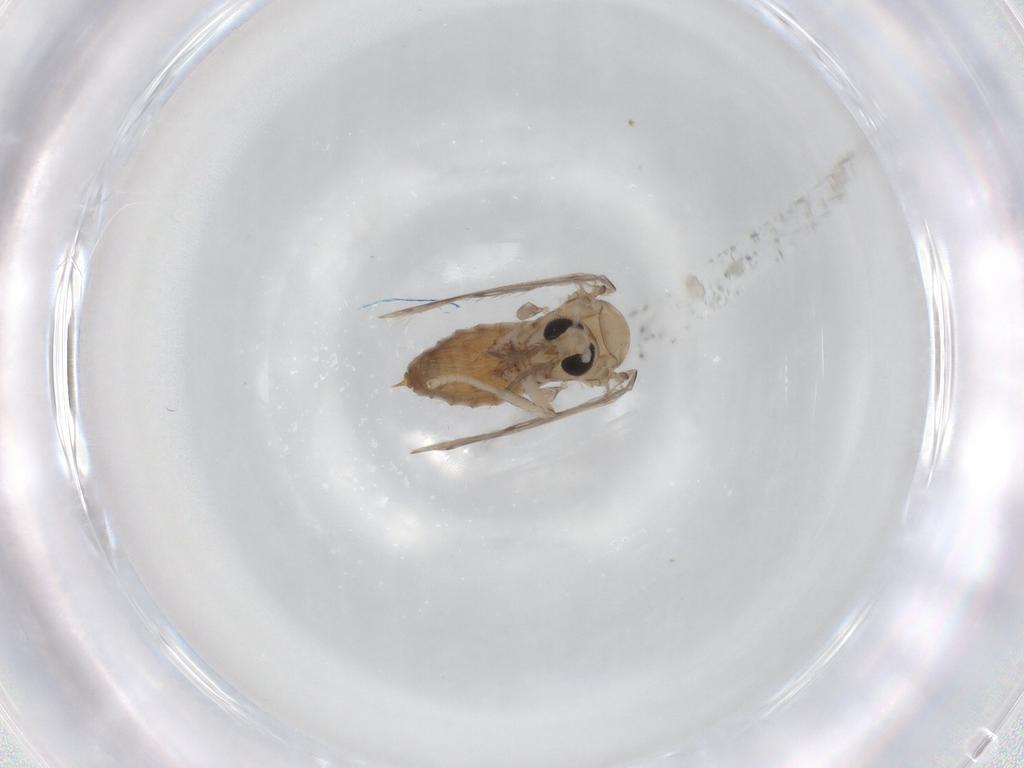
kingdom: Animalia
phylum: Arthropoda
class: Insecta
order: Diptera
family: Psychodidae
